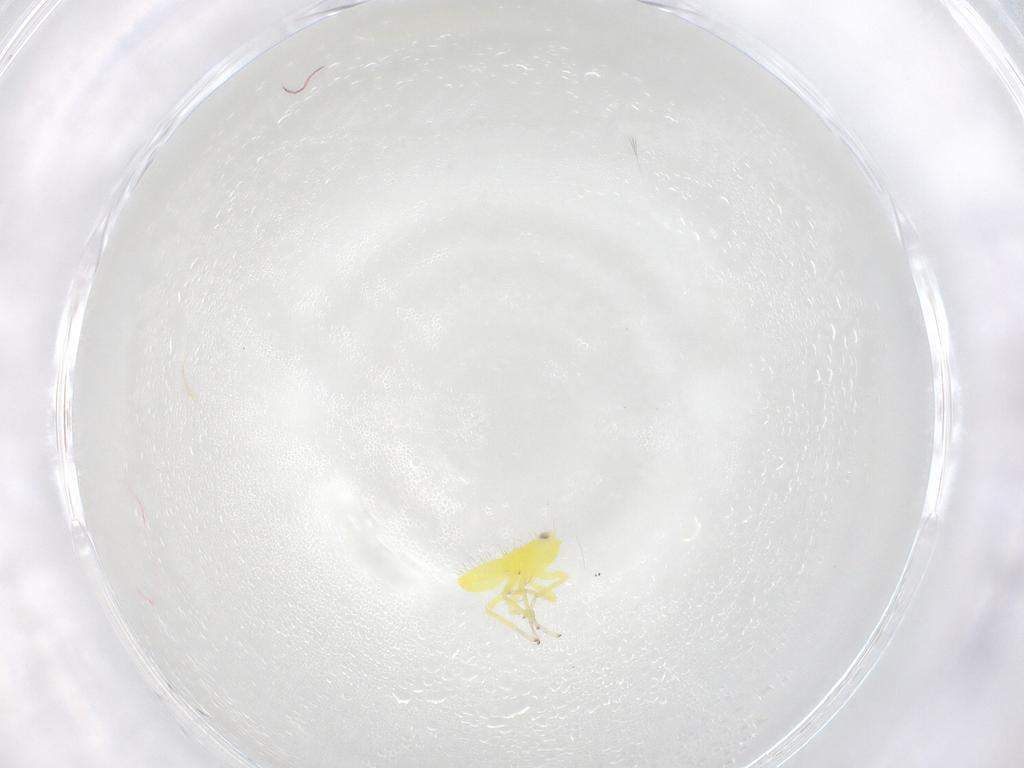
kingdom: Animalia
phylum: Arthropoda
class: Insecta
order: Hemiptera
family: Cicadellidae
